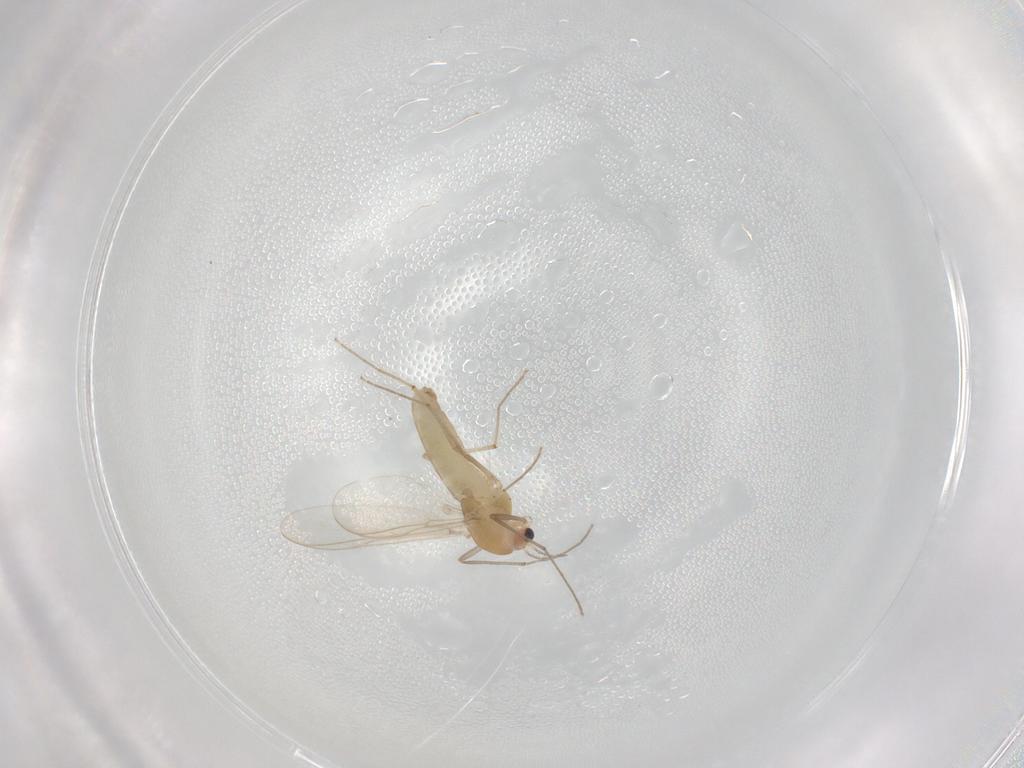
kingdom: Animalia
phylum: Arthropoda
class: Insecta
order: Diptera
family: Chironomidae
